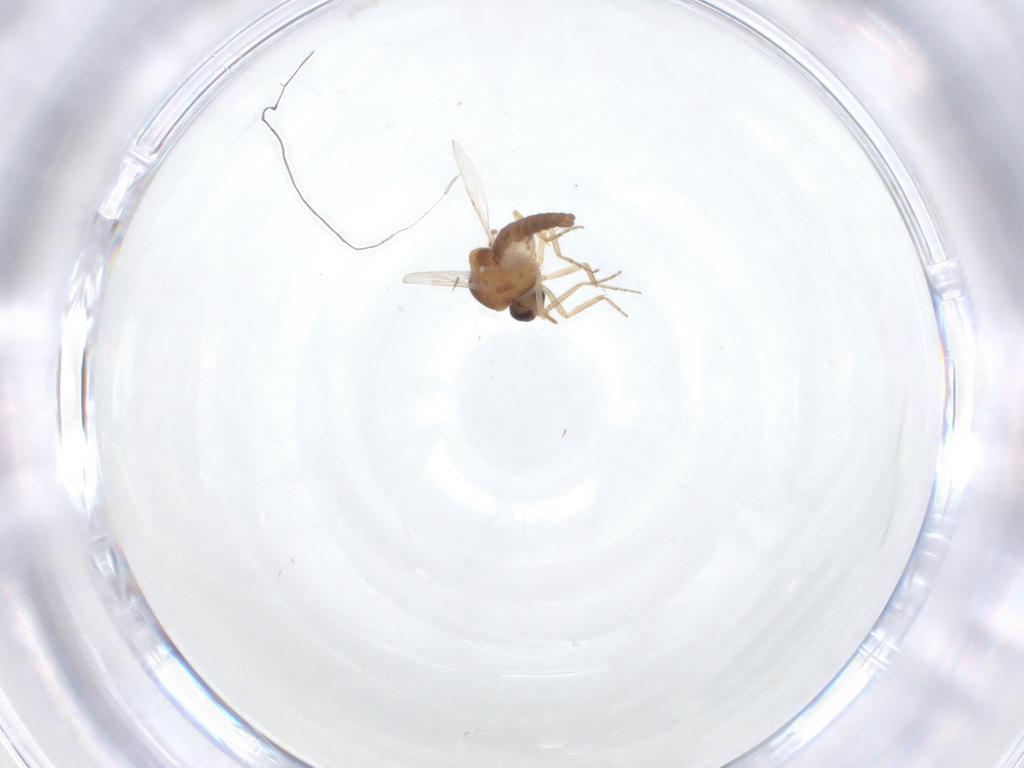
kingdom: Animalia
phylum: Arthropoda
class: Insecta
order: Diptera
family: Ceratopogonidae
